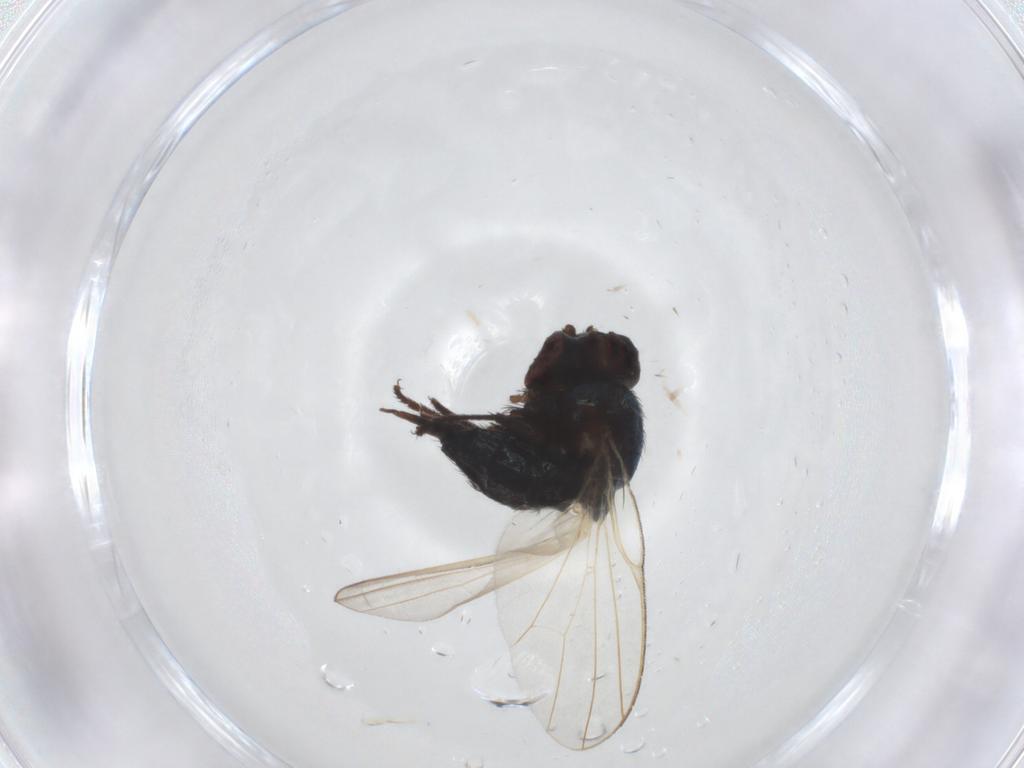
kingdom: Animalia
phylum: Arthropoda
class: Insecta
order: Diptera
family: Lonchaeidae
